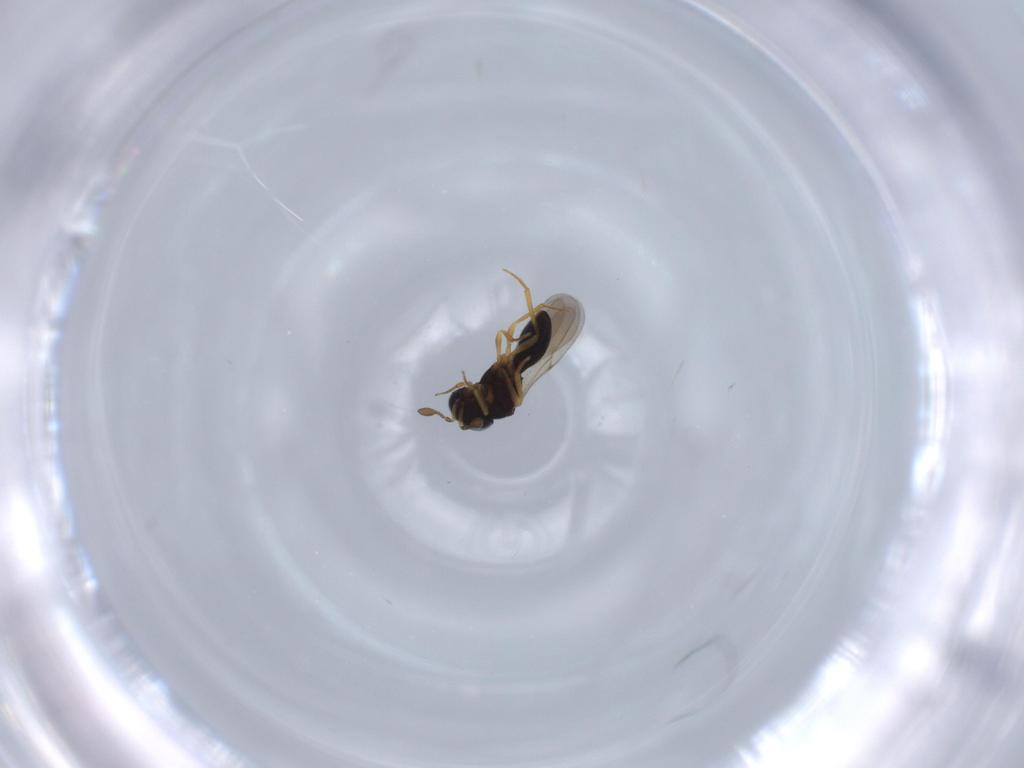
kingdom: Animalia
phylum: Arthropoda
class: Insecta
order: Hymenoptera
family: Scelionidae
